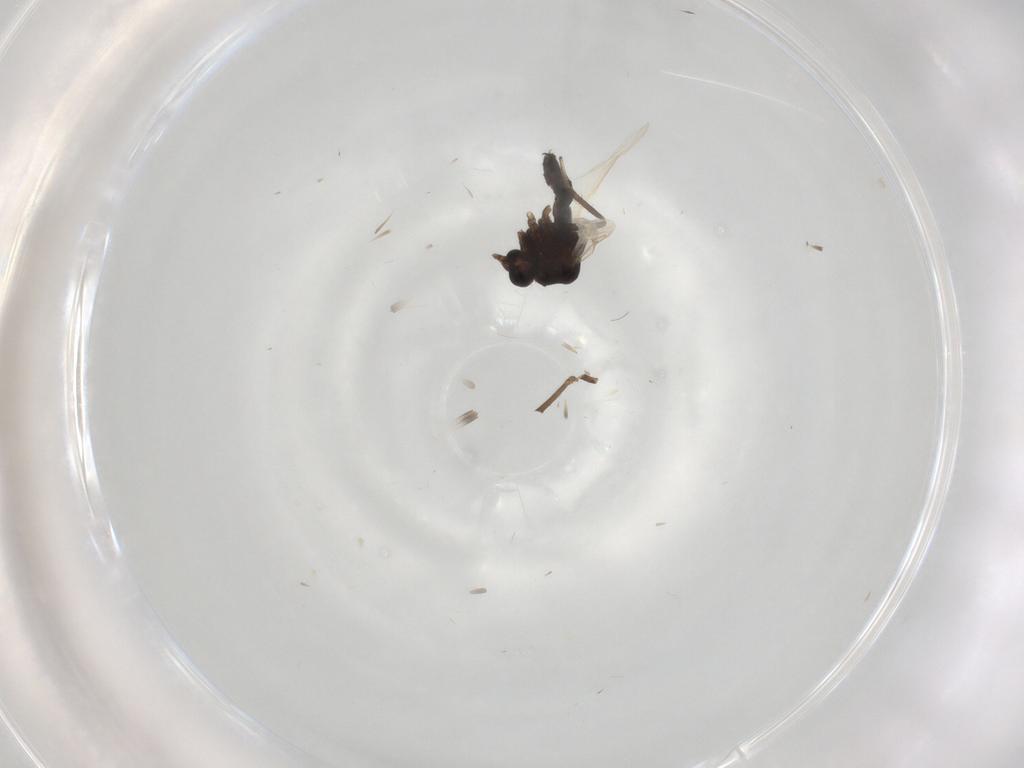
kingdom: Animalia
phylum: Arthropoda
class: Insecta
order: Diptera
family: Ceratopogonidae
